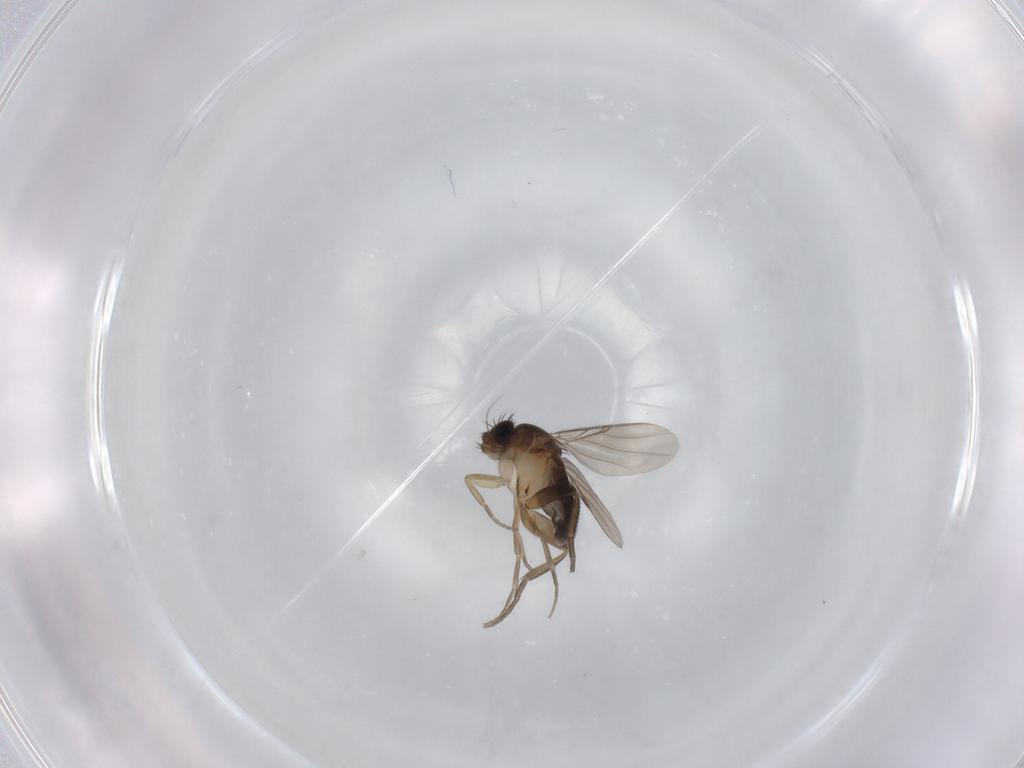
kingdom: Animalia
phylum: Arthropoda
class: Insecta
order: Diptera
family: Phoridae
